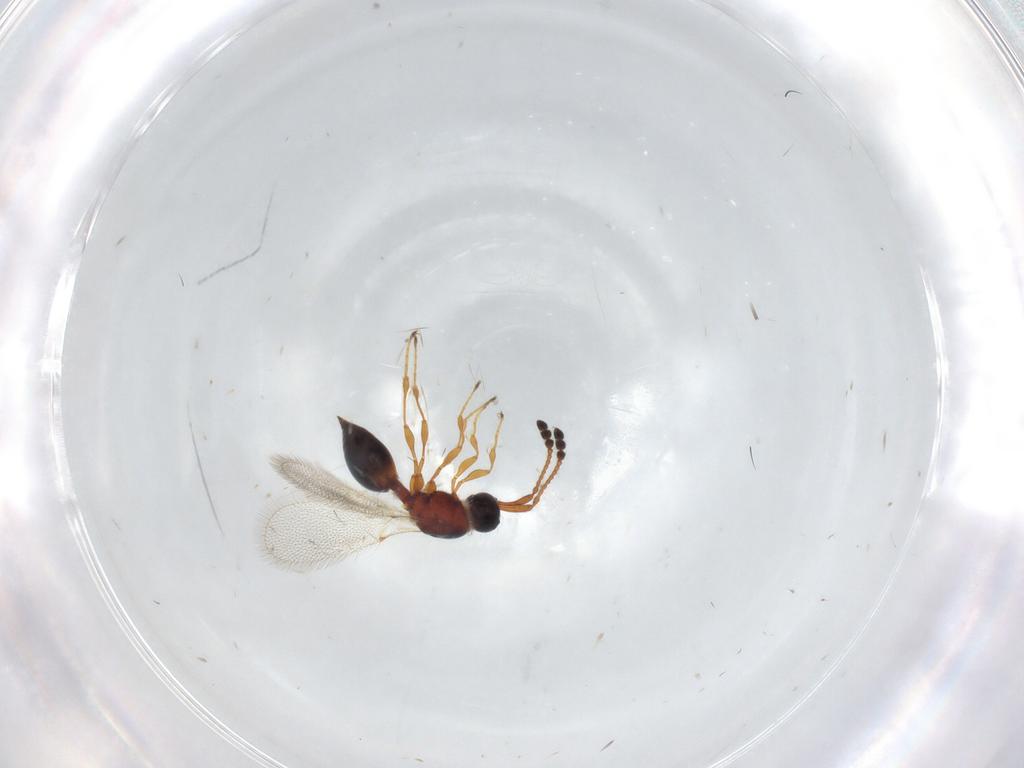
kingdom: Animalia
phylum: Arthropoda
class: Insecta
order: Hymenoptera
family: Diapriidae
